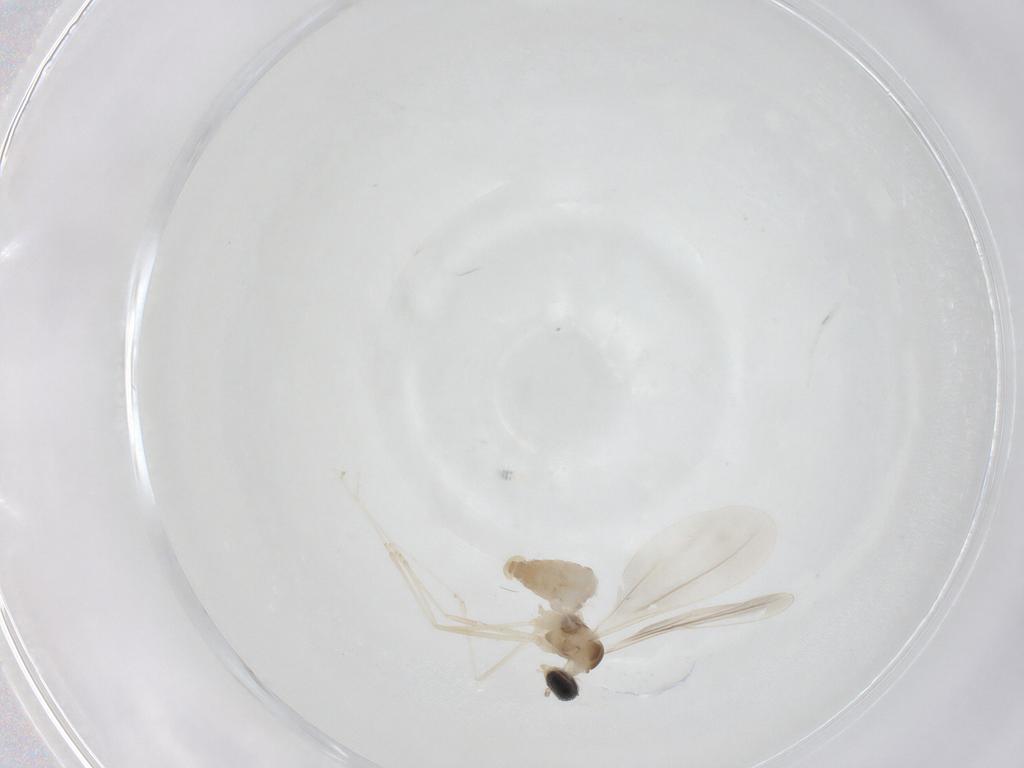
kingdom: Animalia
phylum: Arthropoda
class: Insecta
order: Diptera
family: Cecidomyiidae
